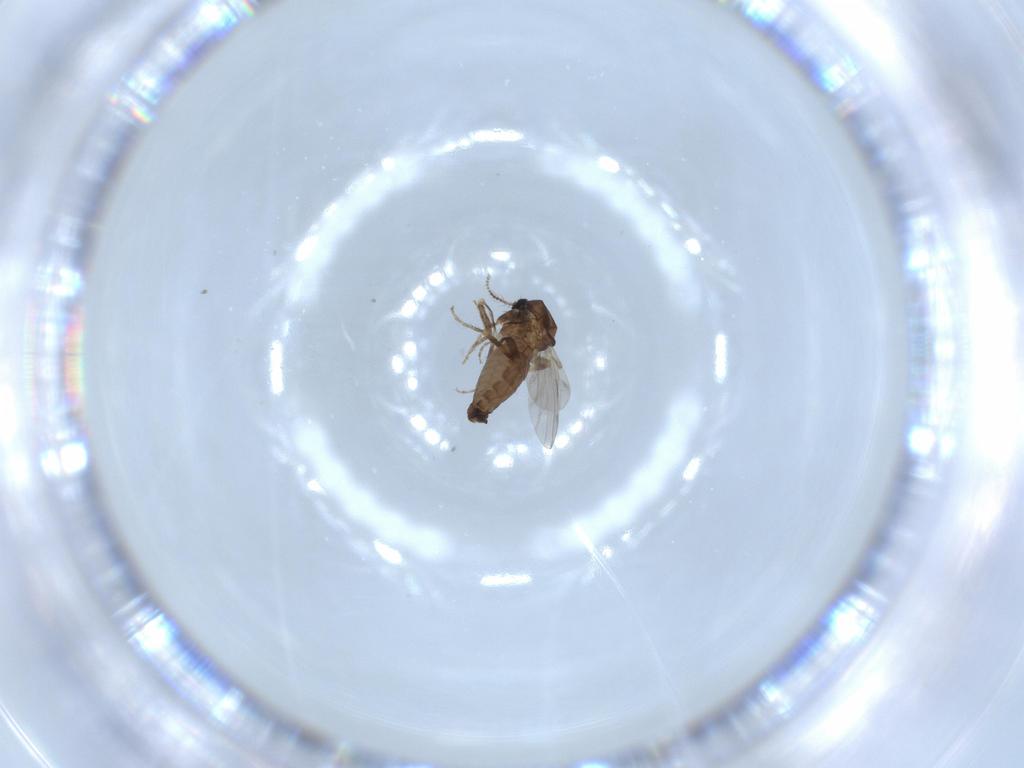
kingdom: Animalia
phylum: Arthropoda
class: Insecta
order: Diptera
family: Ceratopogonidae
